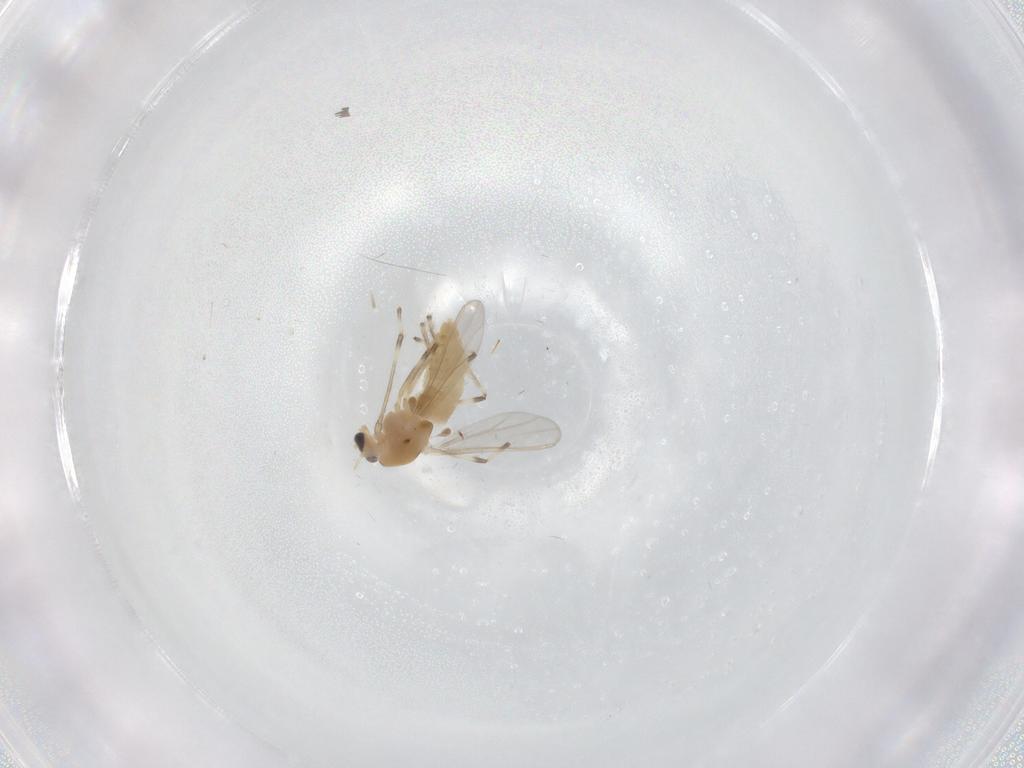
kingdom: Animalia
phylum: Arthropoda
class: Insecta
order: Diptera
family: Chironomidae
